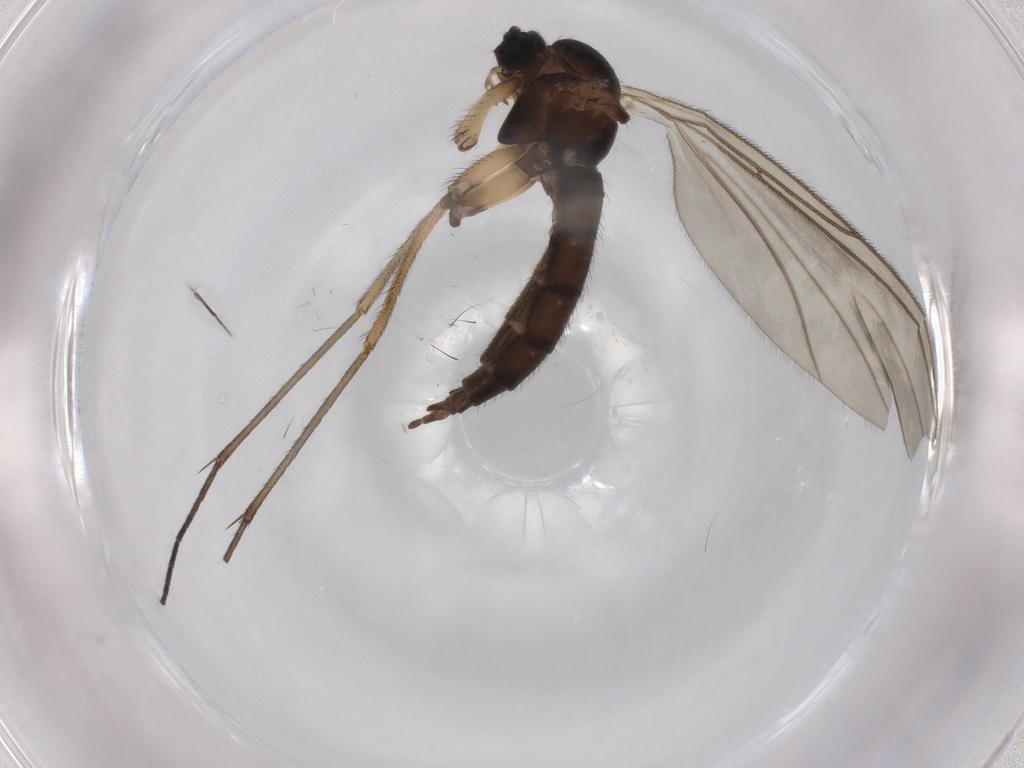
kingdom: Animalia
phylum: Arthropoda
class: Insecta
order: Diptera
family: Sciaridae
